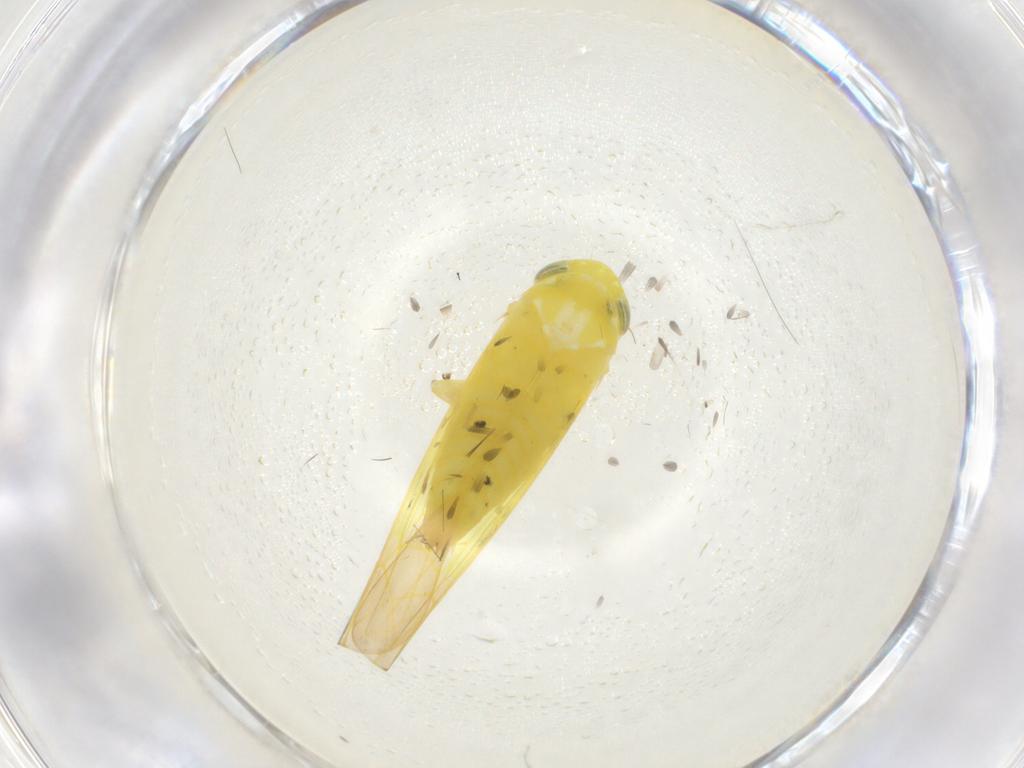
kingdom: Animalia
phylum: Arthropoda
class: Insecta
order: Hemiptera
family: Cicadellidae
